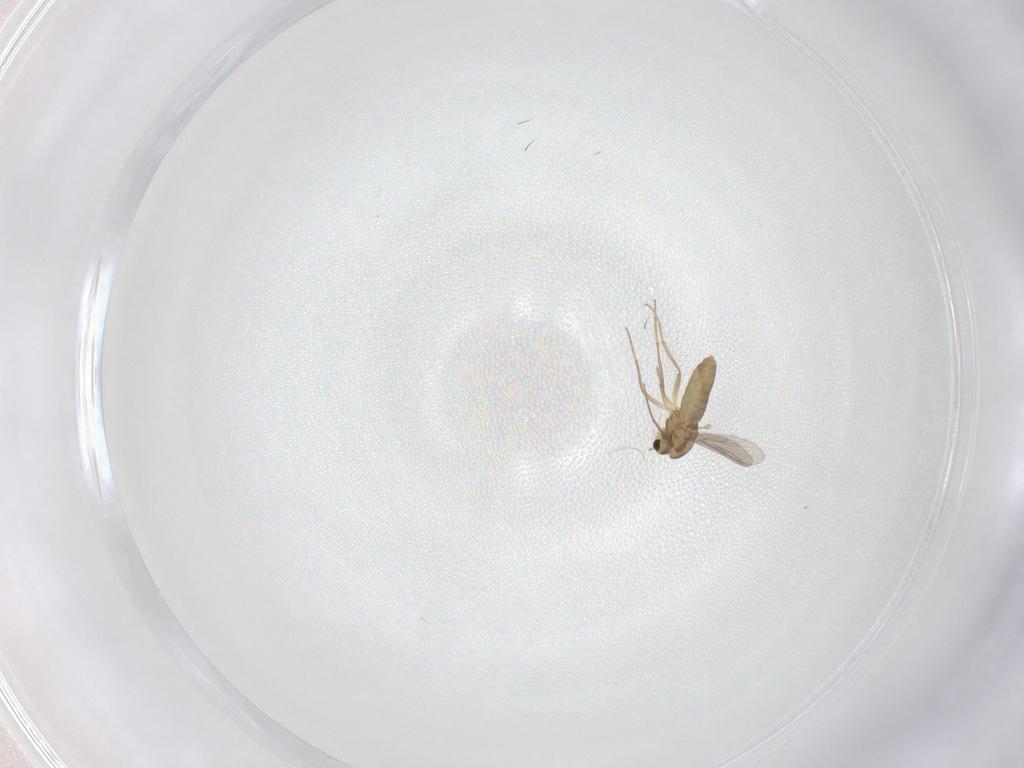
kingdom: Animalia
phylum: Arthropoda
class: Insecta
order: Diptera
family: Chironomidae
